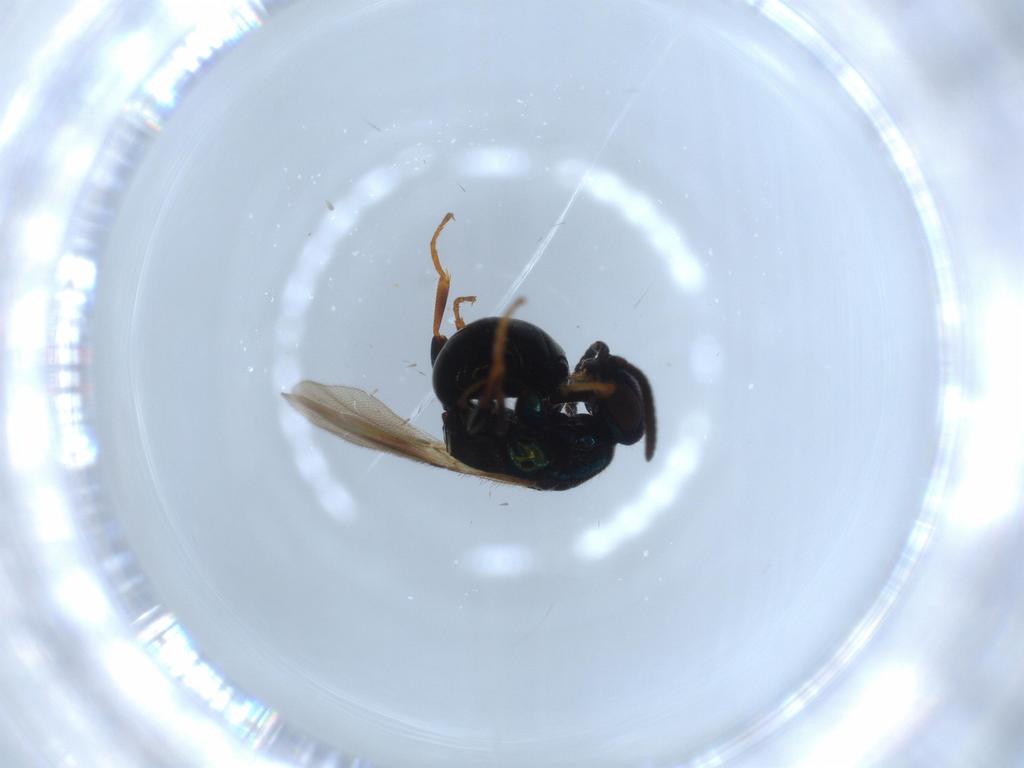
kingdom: Animalia
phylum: Arthropoda
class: Insecta
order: Hymenoptera
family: Bethylidae
